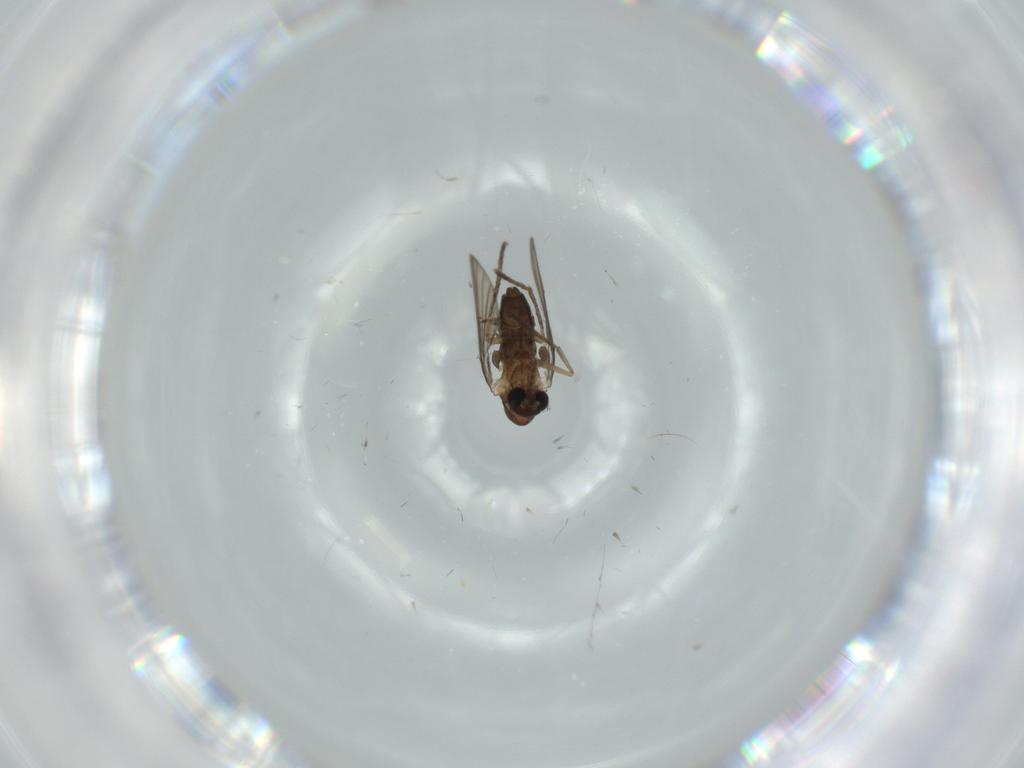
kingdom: Animalia
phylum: Arthropoda
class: Insecta
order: Diptera
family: Psychodidae
